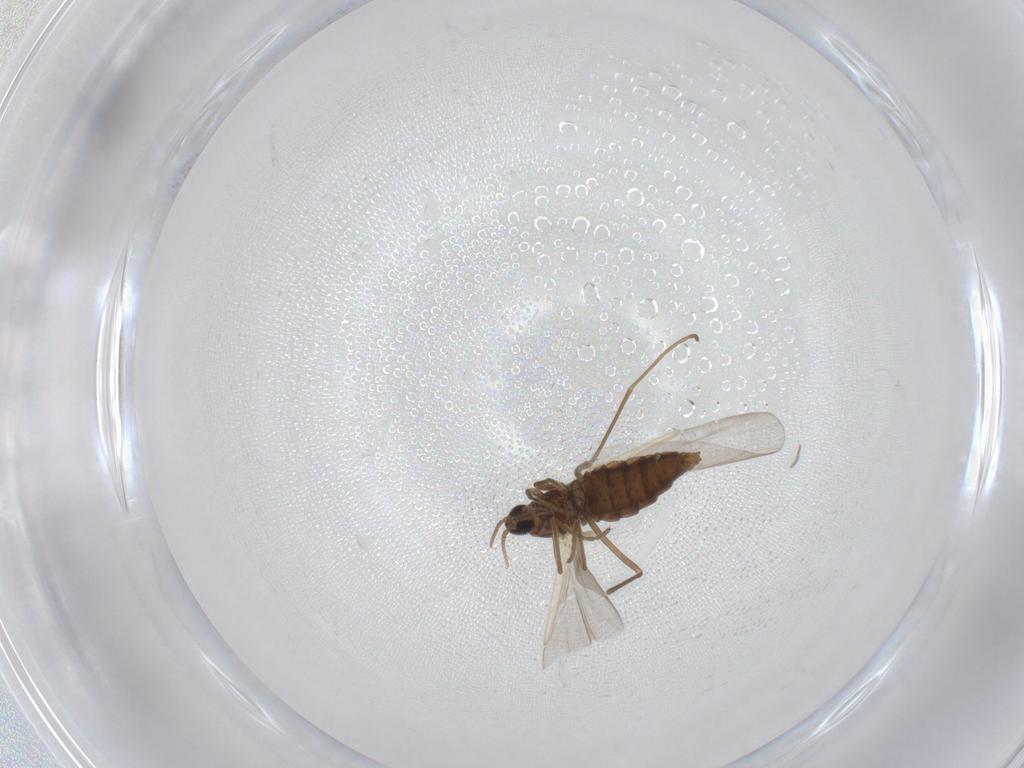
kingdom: Animalia
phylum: Arthropoda
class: Insecta
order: Diptera
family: Cecidomyiidae
